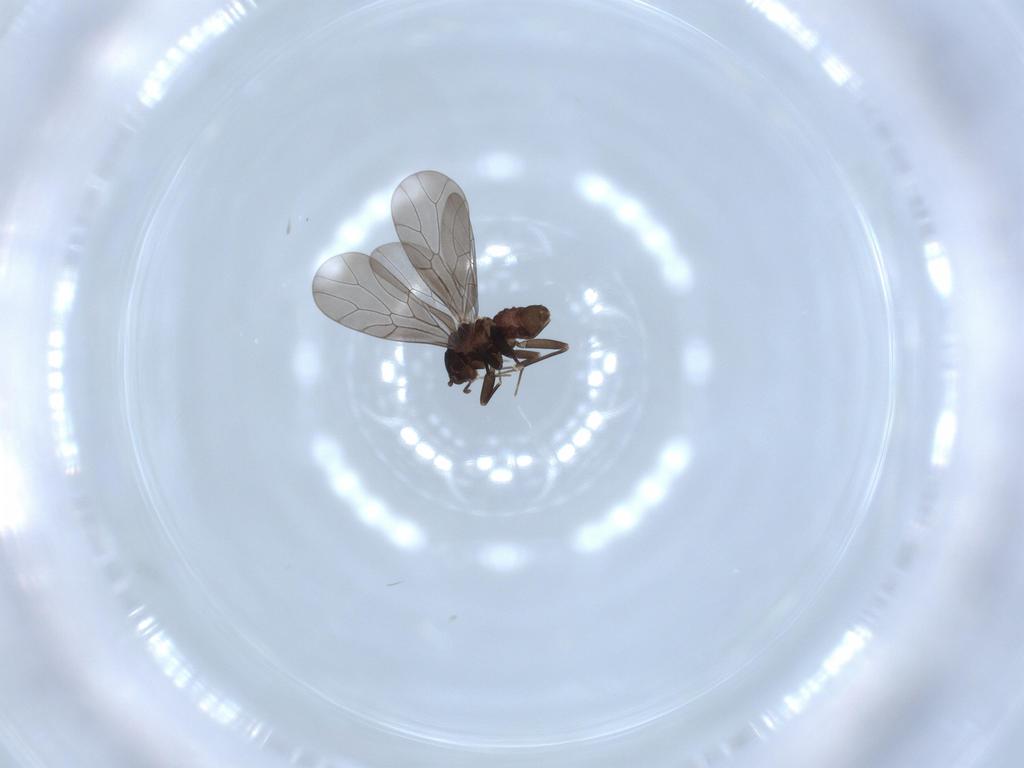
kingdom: Animalia
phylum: Arthropoda
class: Insecta
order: Psocodea
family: Lepidopsocidae
